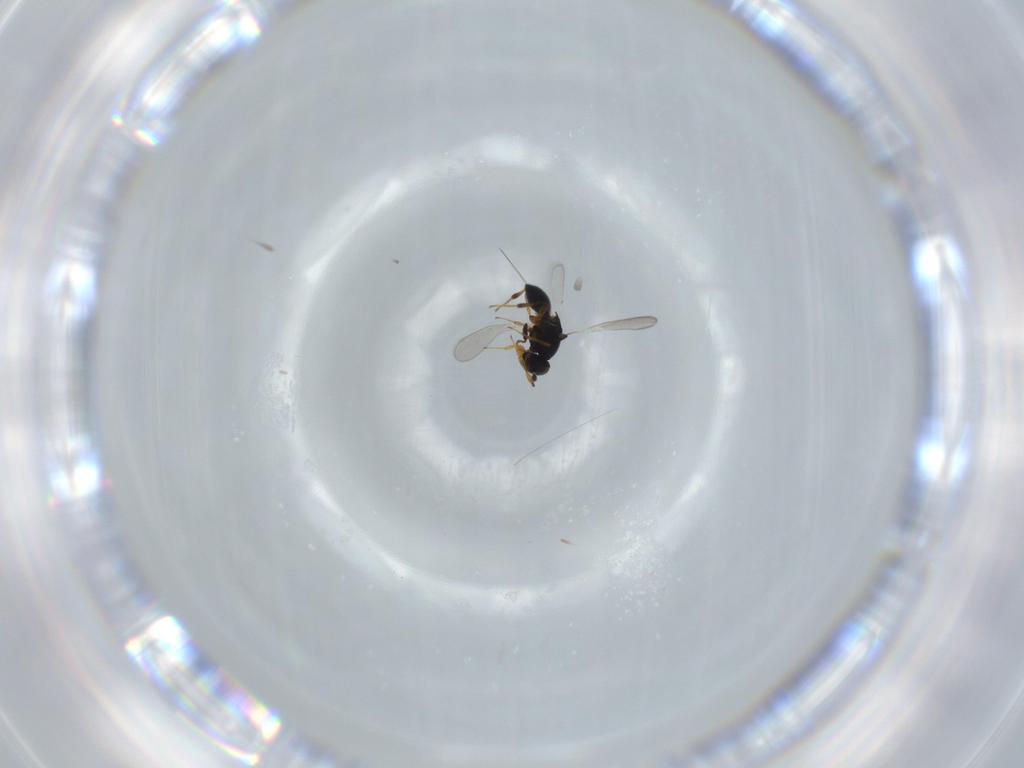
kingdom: Animalia
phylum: Arthropoda
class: Insecta
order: Hymenoptera
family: Platygastridae
